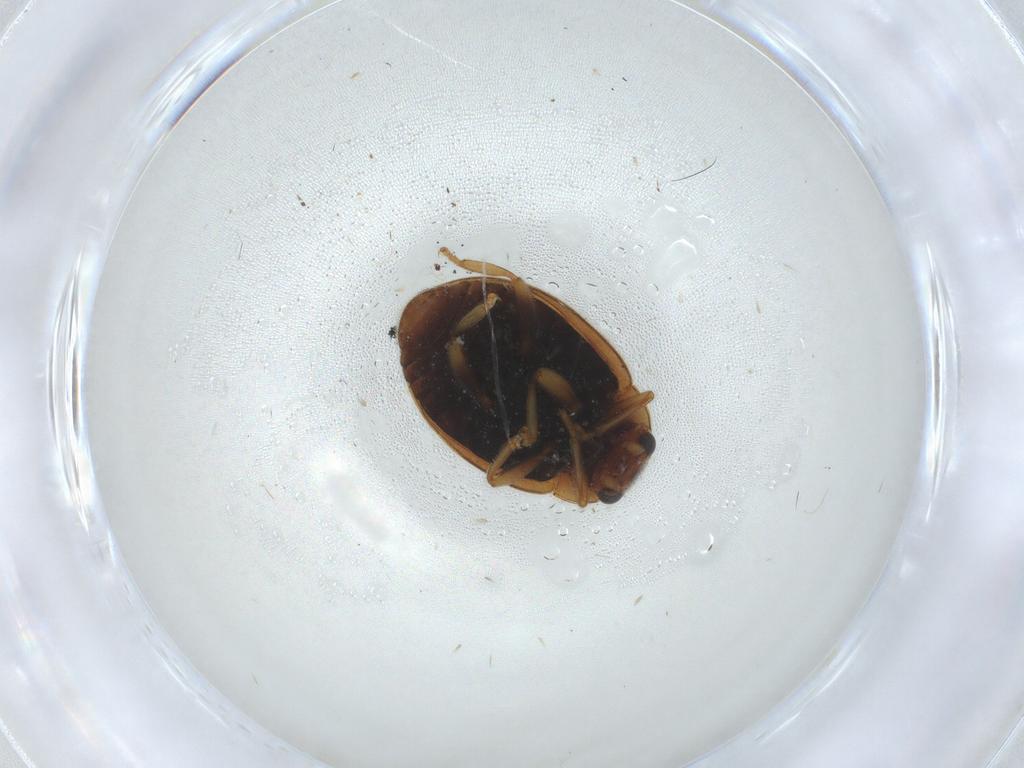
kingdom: Animalia
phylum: Arthropoda
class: Insecta
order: Coleoptera
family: Coccinellidae
